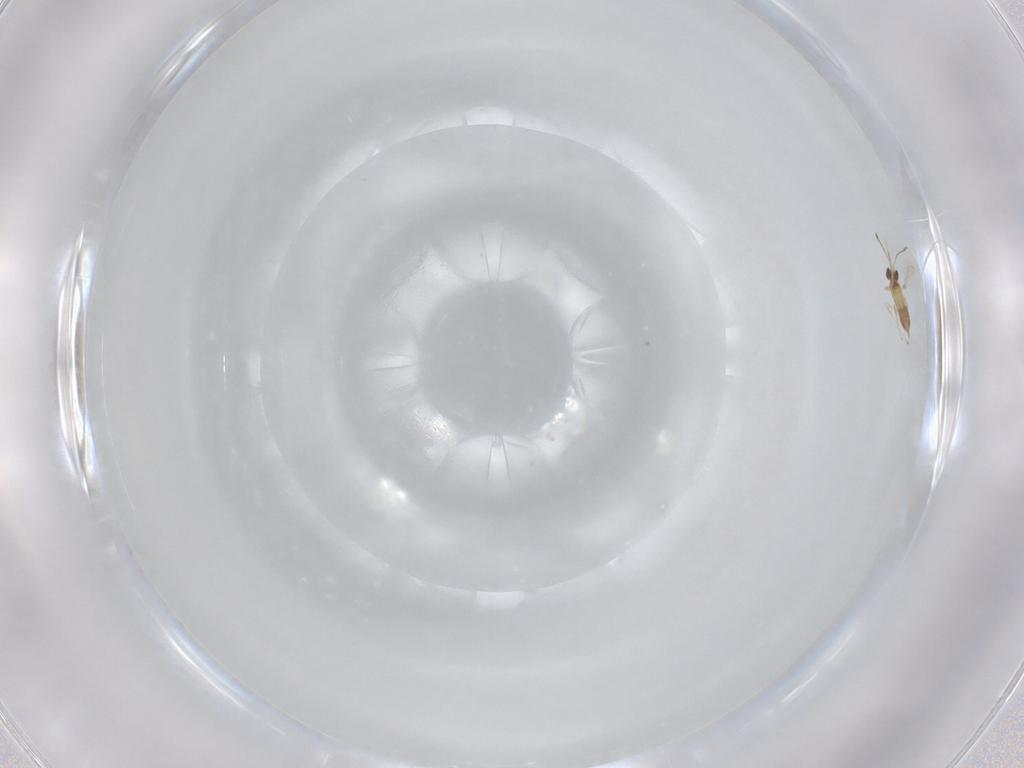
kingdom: Animalia
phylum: Arthropoda
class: Insecta
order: Hymenoptera
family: Mymaridae
